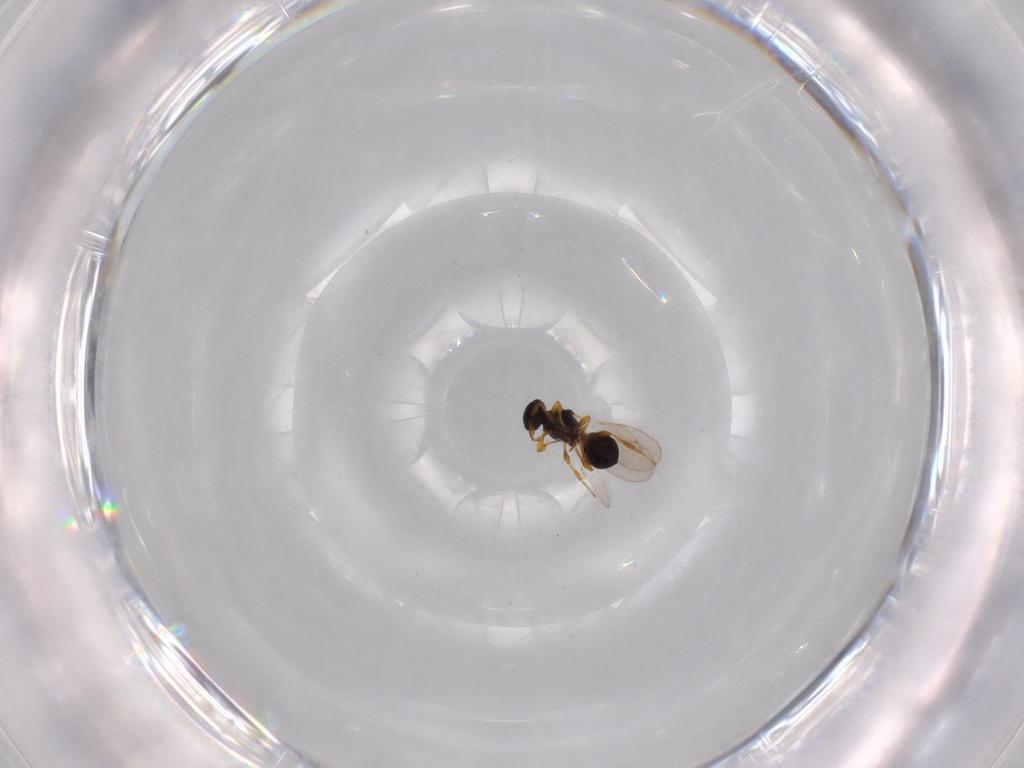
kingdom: Animalia
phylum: Arthropoda
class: Insecta
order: Hymenoptera
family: Platygastridae
